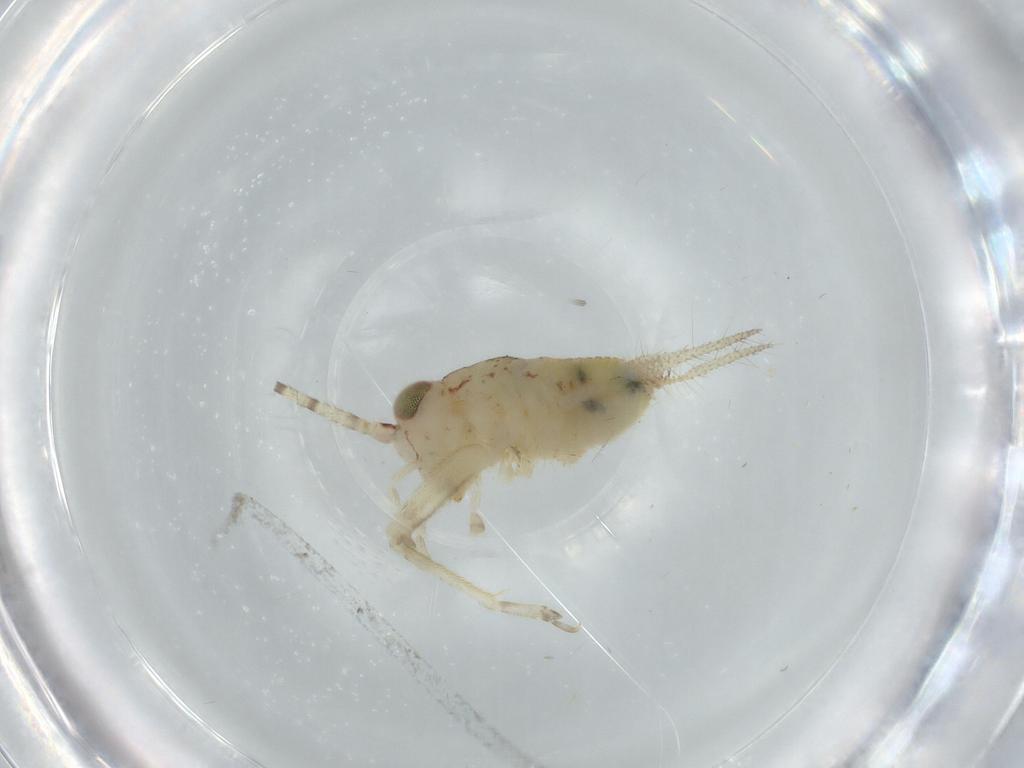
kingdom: Animalia
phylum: Arthropoda
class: Insecta
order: Orthoptera
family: Trigonidiidae
